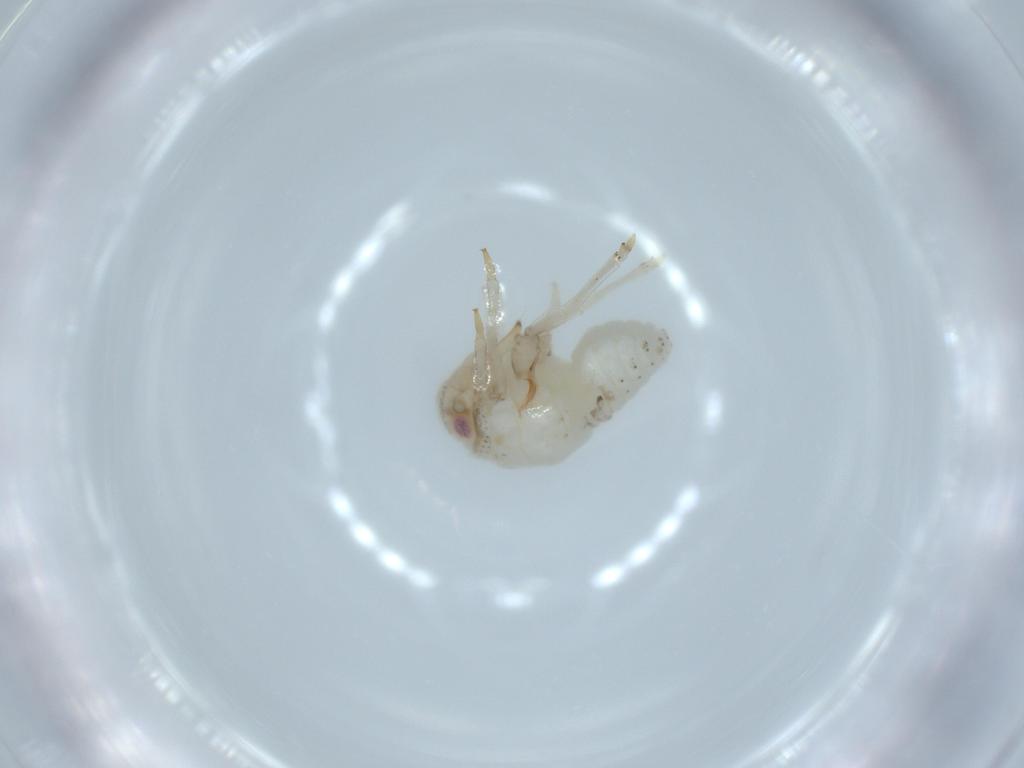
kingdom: Animalia
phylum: Arthropoda
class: Insecta
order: Hemiptera
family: Acanaloniidae
